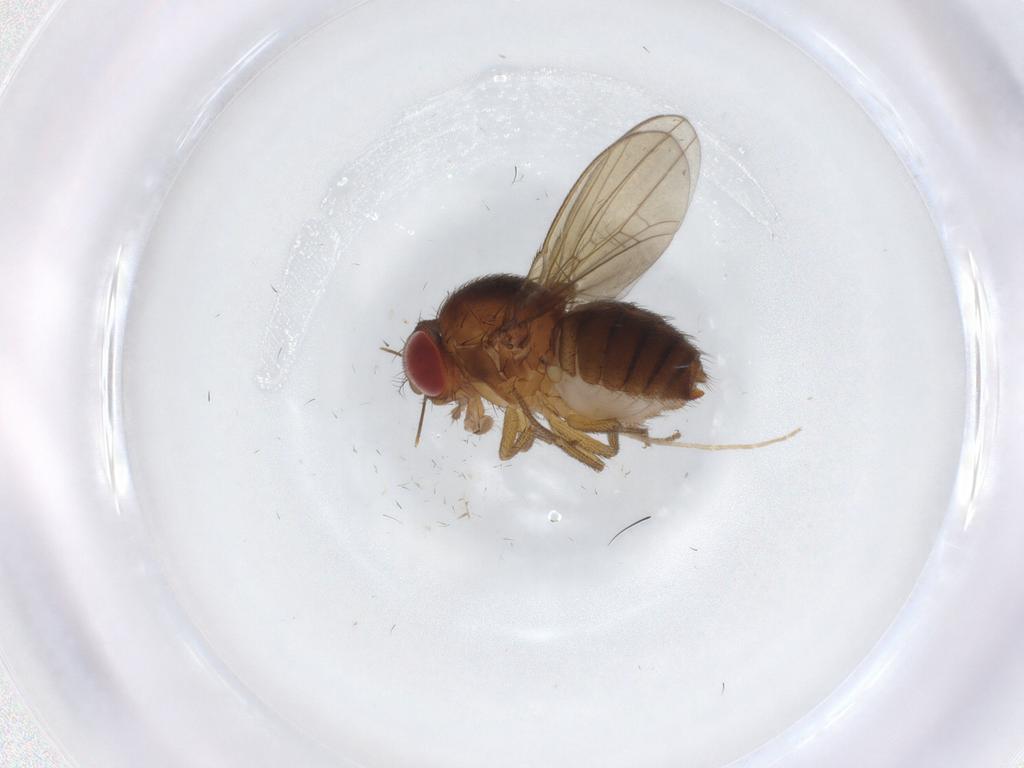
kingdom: Animalia
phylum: Arthropoda
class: Insecta
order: Diptera
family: Drosophilidae
